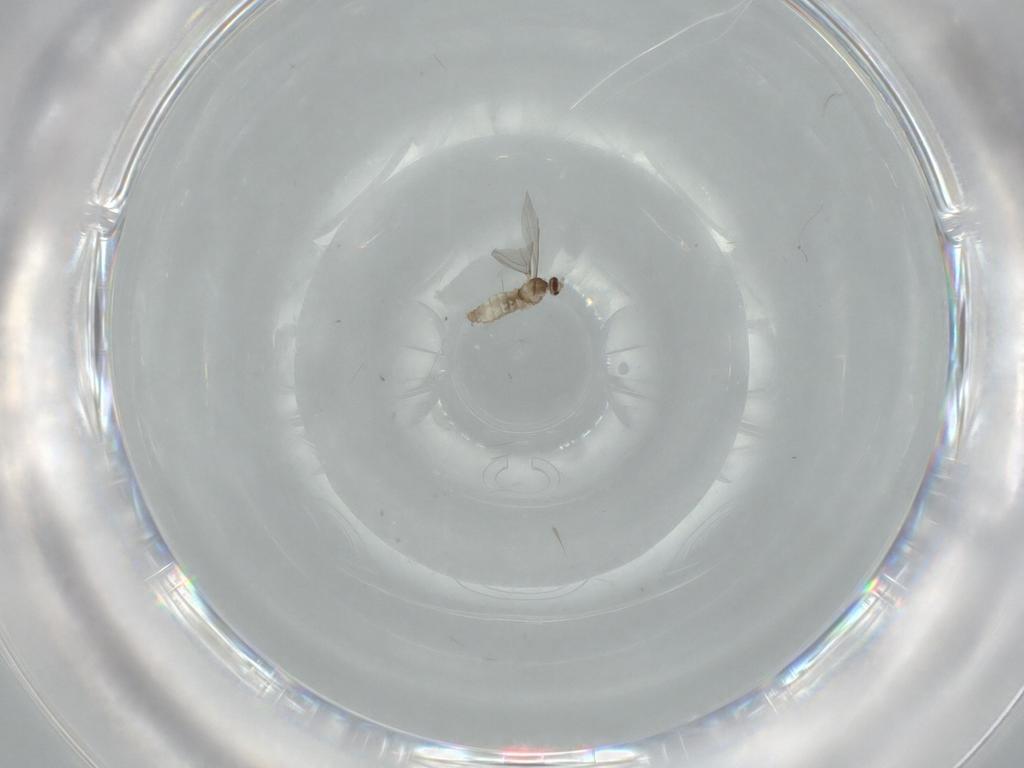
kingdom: Animalia
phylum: Arthropoda
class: Insecta
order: Diptera
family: Cecidomyiidae
